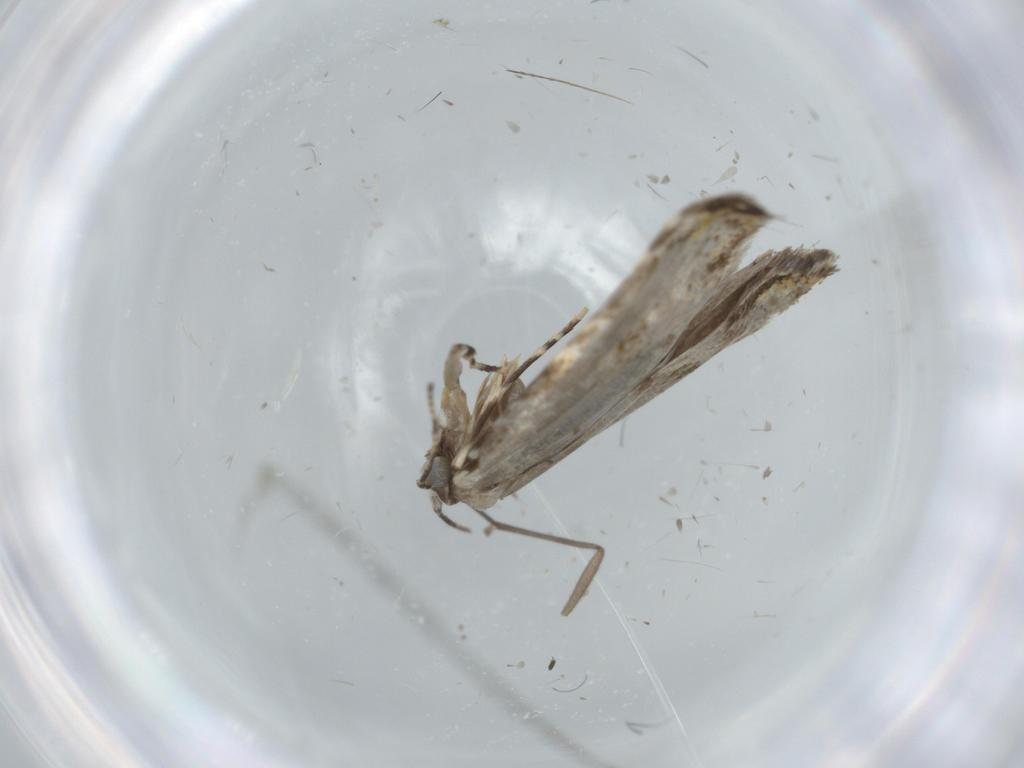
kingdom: Animalia
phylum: Arthropoda
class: Insecta
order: Lepidoptera
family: Tineidae
